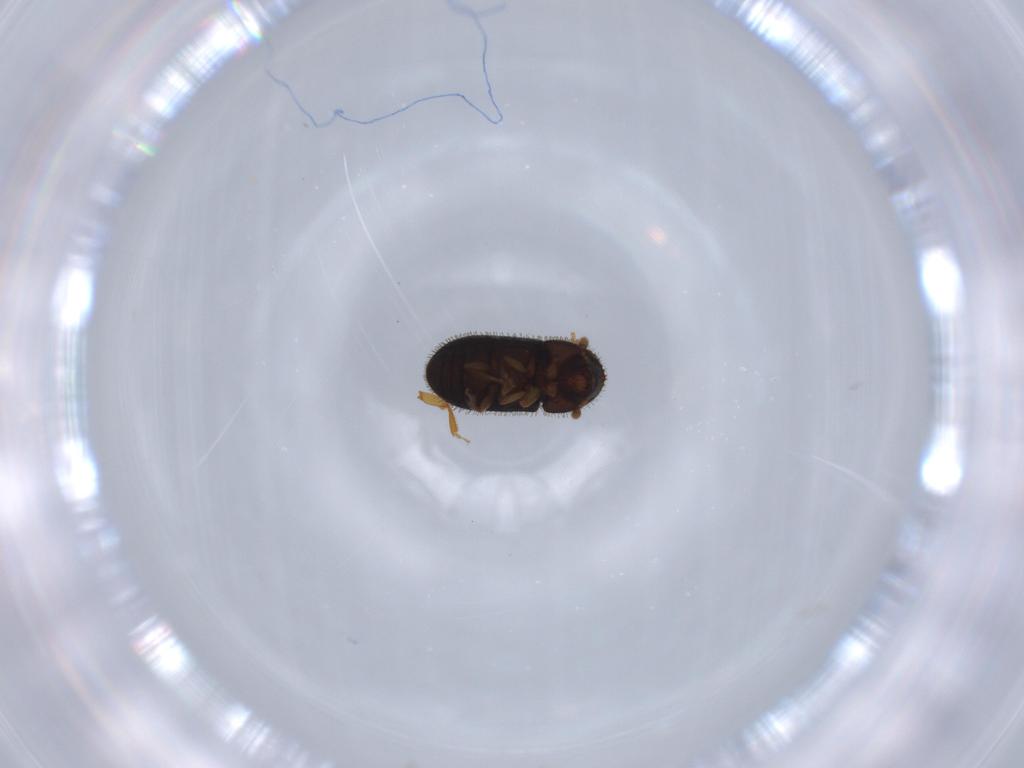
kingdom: Animalia
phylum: Arthropoda
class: Insecta
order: Coleoptera
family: Curculionidae
